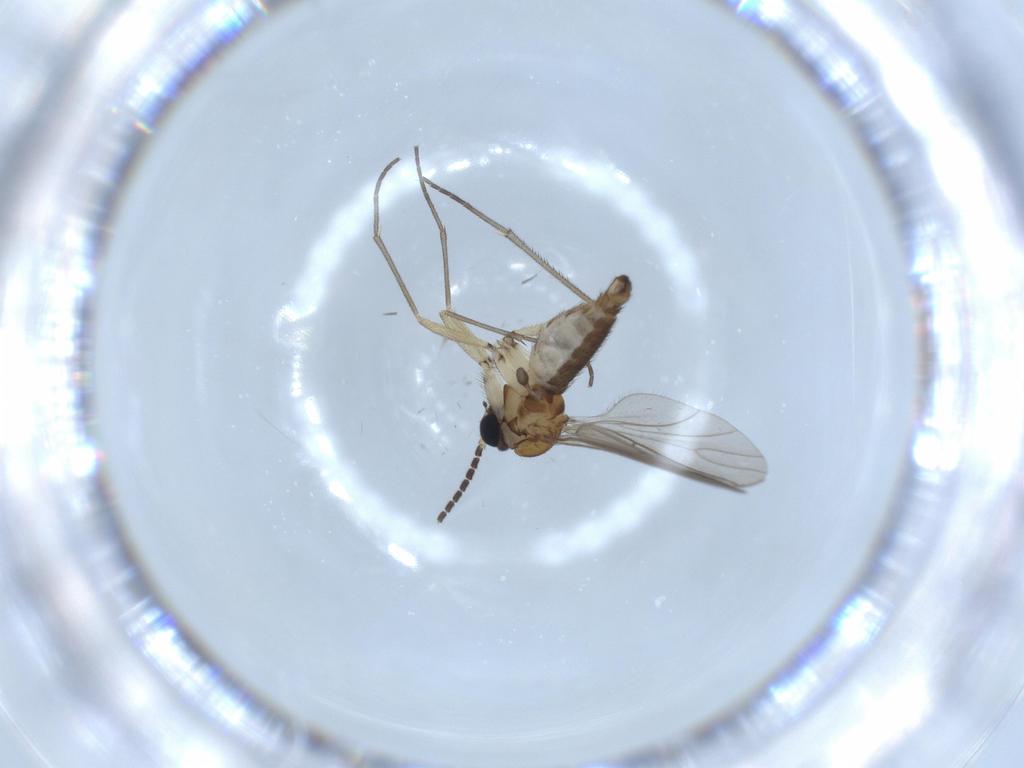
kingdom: Animalia
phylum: Arthropoda
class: Insecta
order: Diptera
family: Sciaridae
